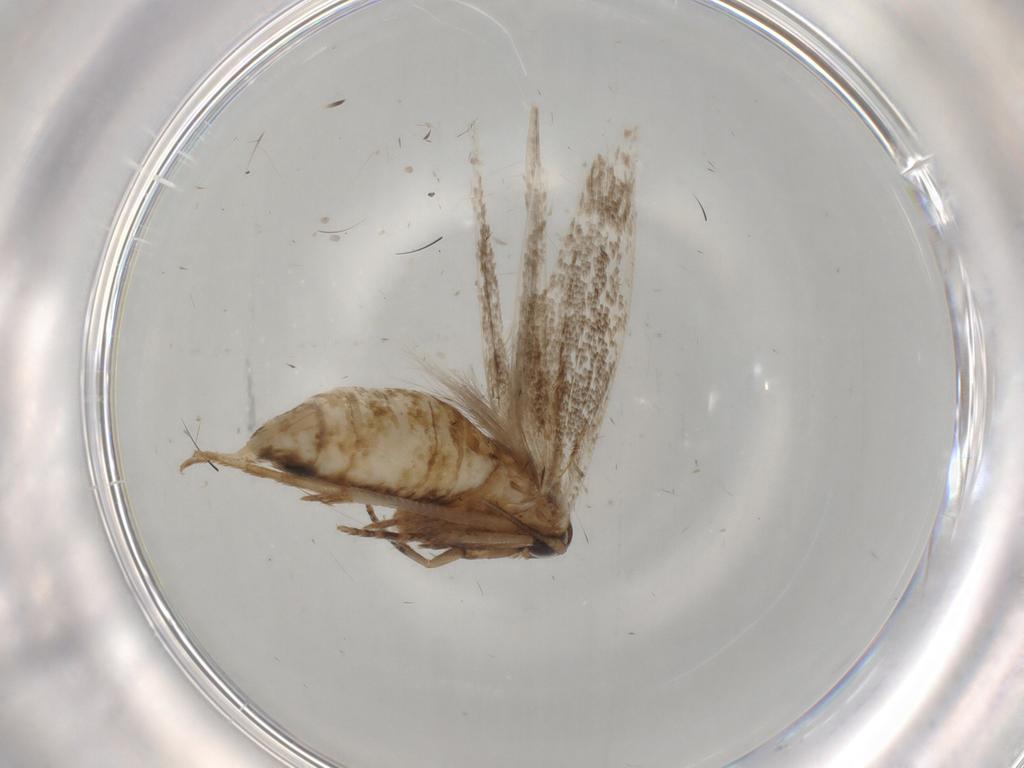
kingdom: Animalia
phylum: Arthropoda
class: Insecta
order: Lepidoptera
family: Cosmopterigidae
